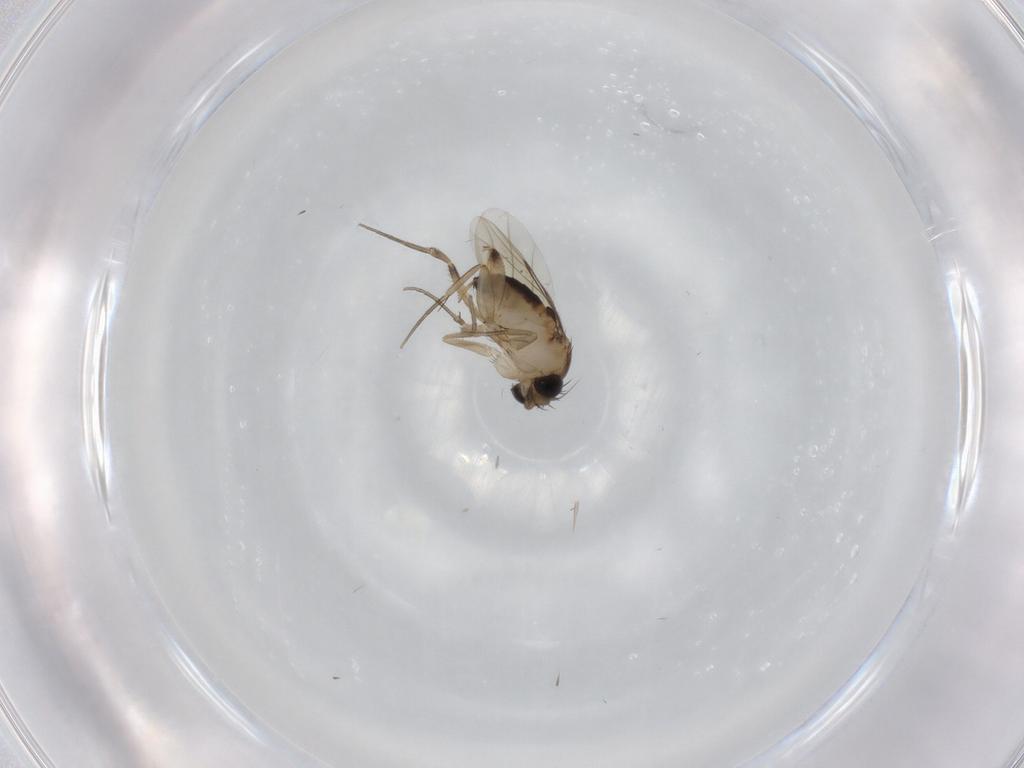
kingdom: Animalia
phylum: Arthropoda
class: Insecta
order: Diptera
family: Phoridae
